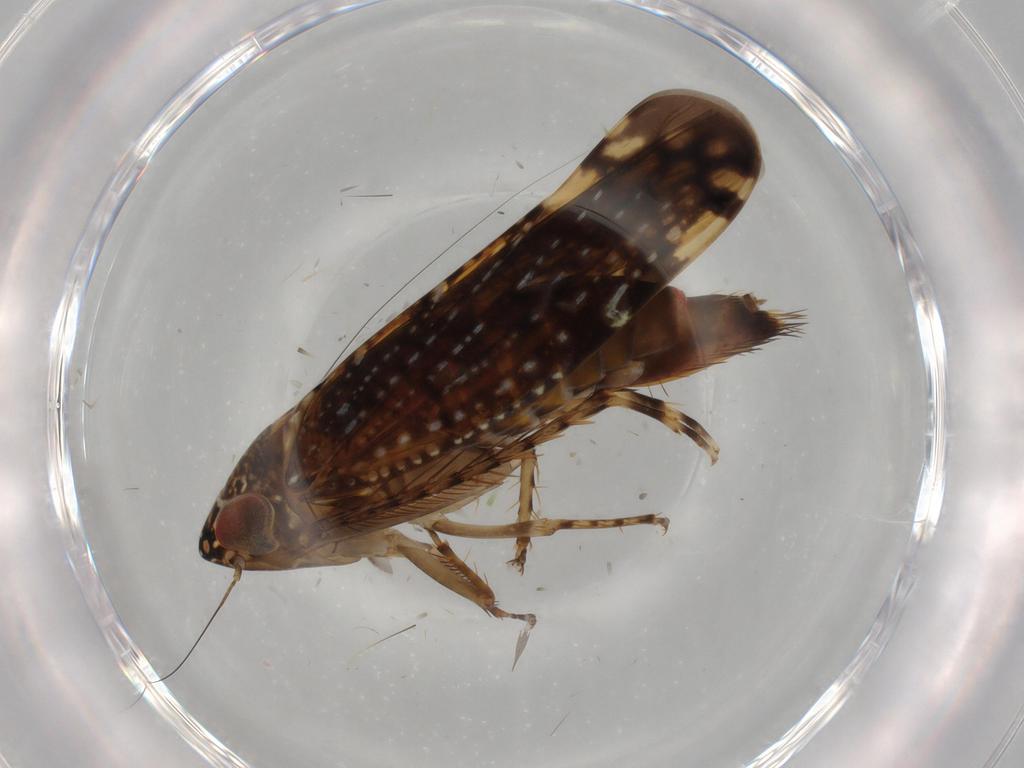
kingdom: Animalia
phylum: Arthropoda
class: Insecta
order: Hemiptera
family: Cicadellidae
